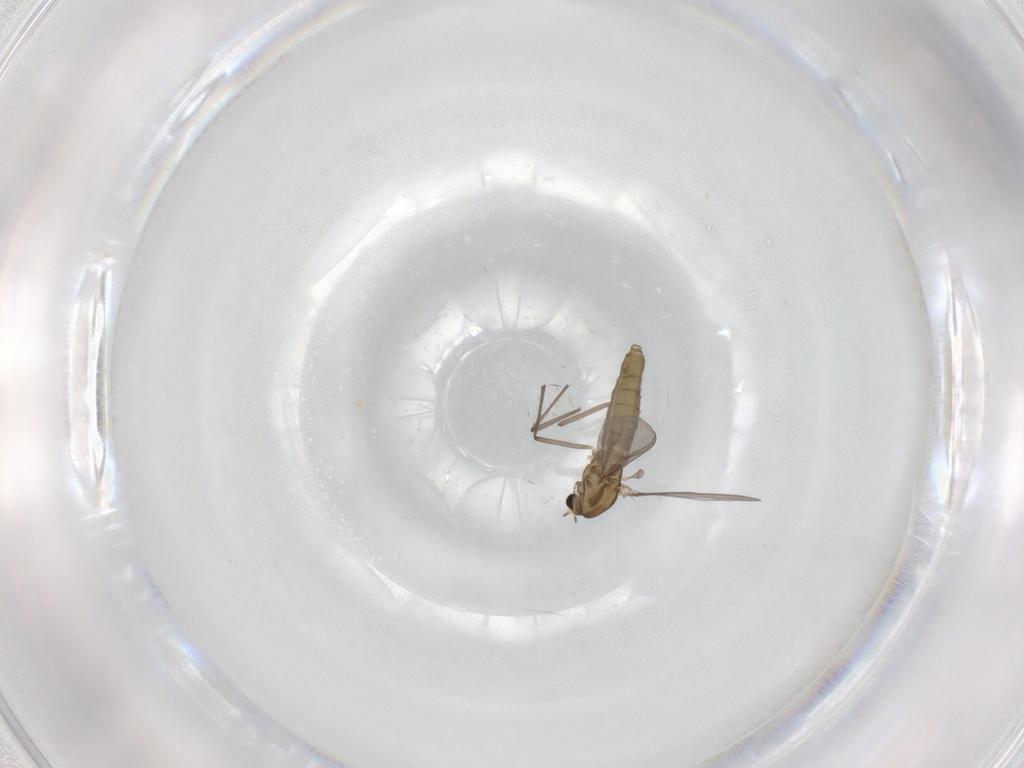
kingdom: Animalia
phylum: Arthropoda
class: Insecta
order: Diptera
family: Chironomidae
